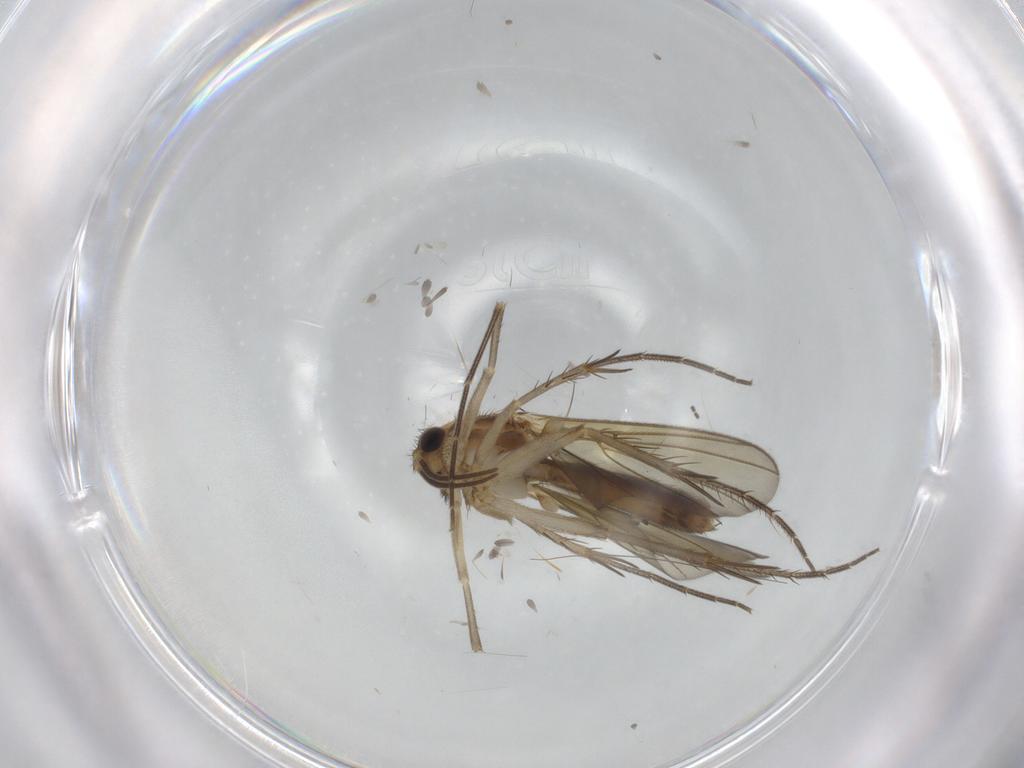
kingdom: Animalia
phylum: Arthropoda
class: Insecta
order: Diptera
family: Mycetophilidae
